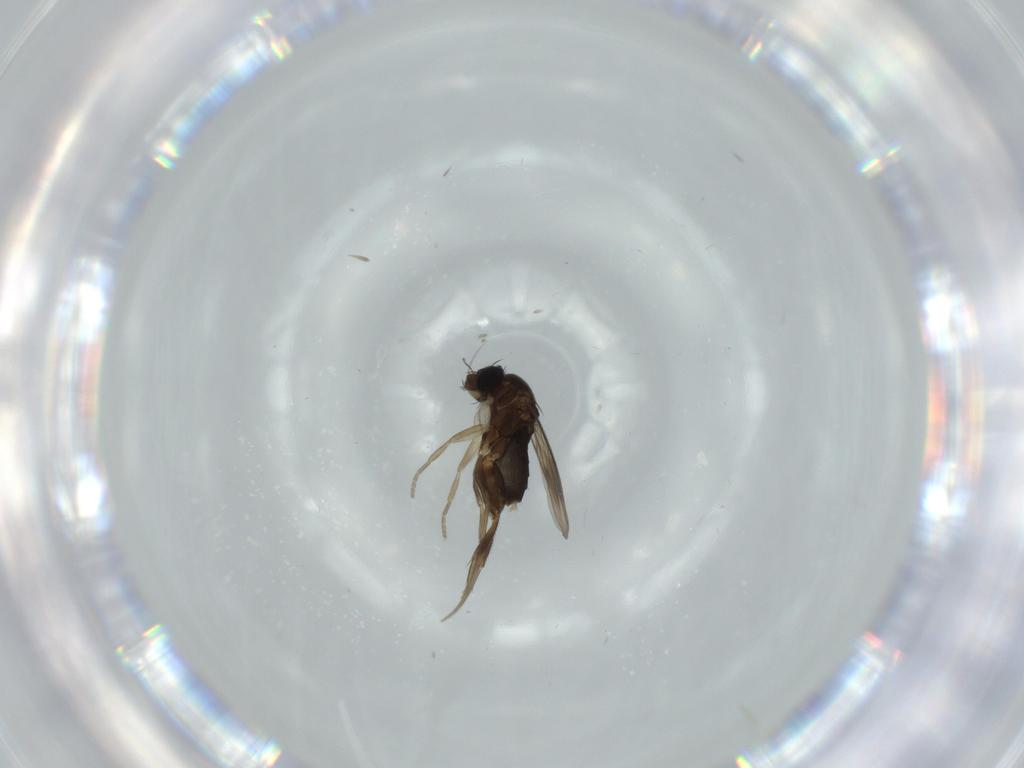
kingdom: Animalia
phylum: Arthropoda
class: Insecta
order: Diptera
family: Phoridae
